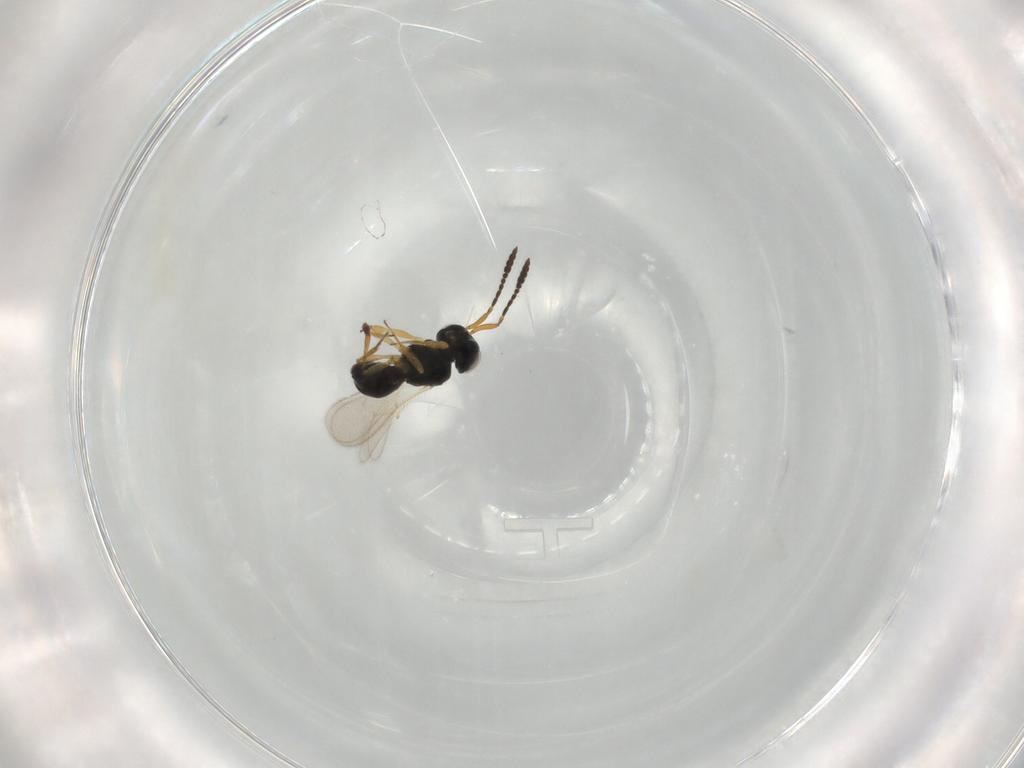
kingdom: Animalia
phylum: Arthropoda
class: Insecta
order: Hymenoptera
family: Scelionidae
